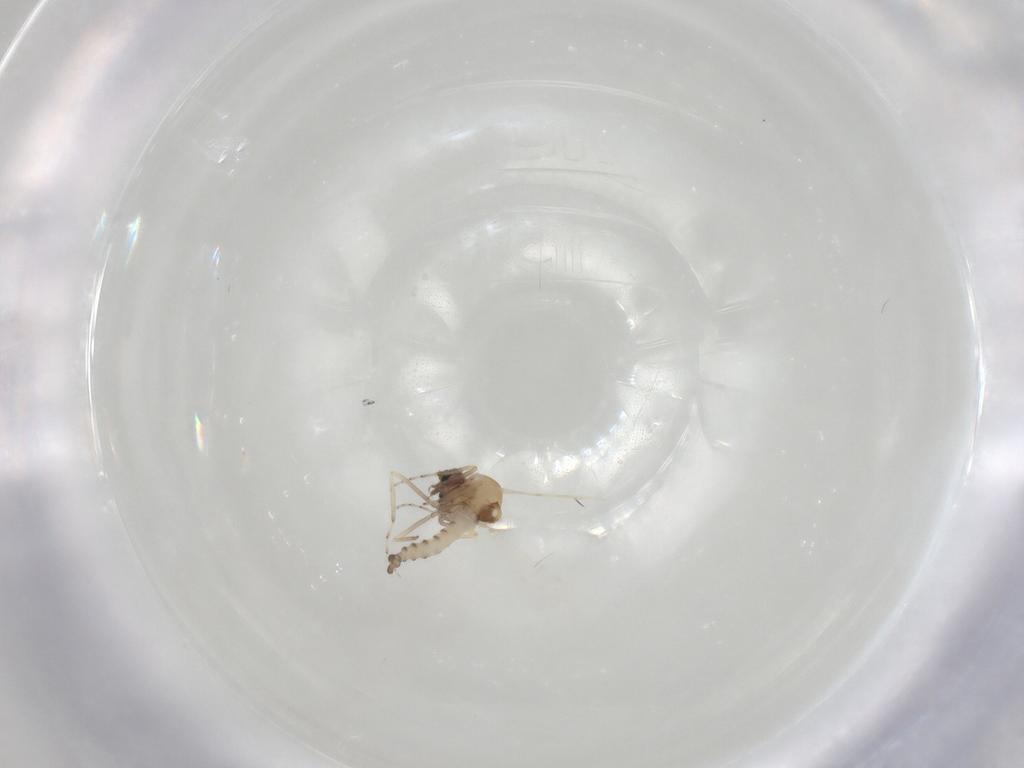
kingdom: Animalia
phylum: Arthropoda
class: Insecta
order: Diptera
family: Ceratopogonidae
